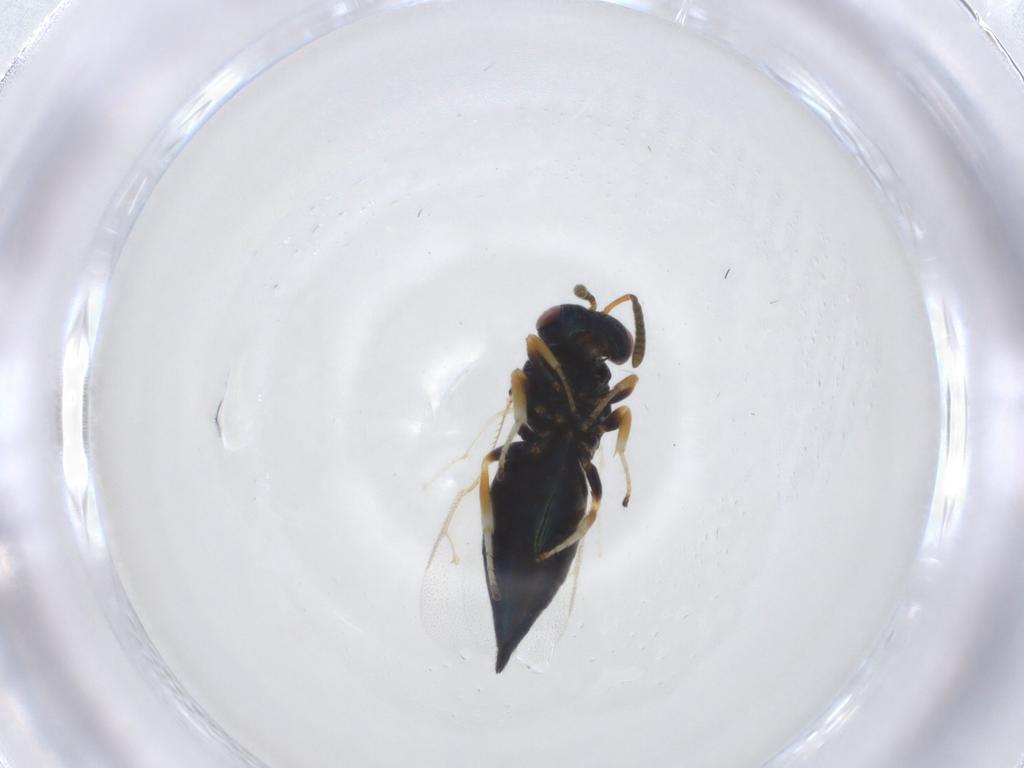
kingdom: Animalia
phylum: Arthropoda
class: Insecta
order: Hymenoptera
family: Pteromalidae
